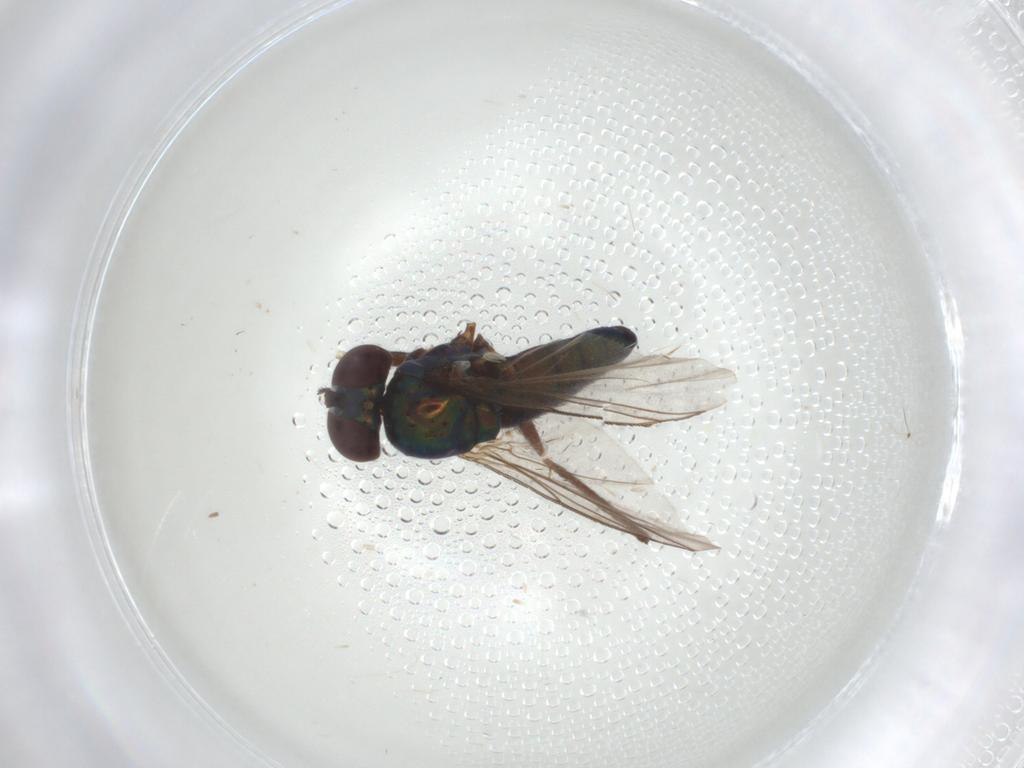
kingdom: Animalia
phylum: Arthropoda
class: Insecta
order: Diptera
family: Dolichopodidae
